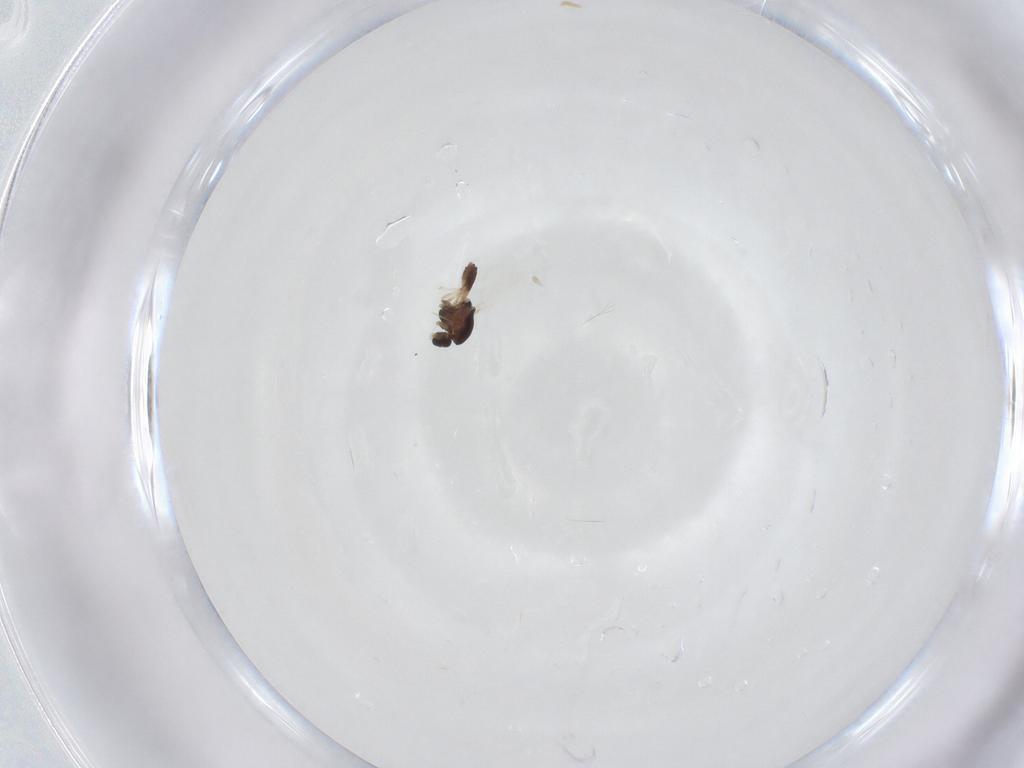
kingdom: Animalia
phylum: Arthropoda
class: Insecta
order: Diptera
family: Chironomidae
